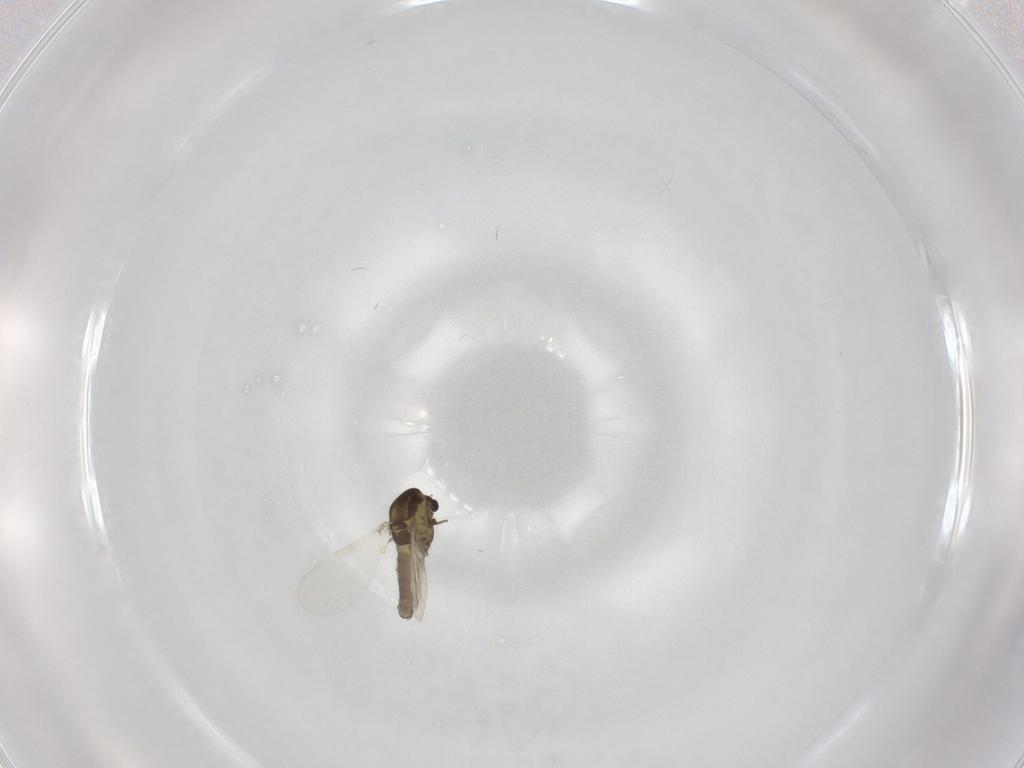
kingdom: Animalia
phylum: Arthropoda
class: Insecta
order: Diptera
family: Chironomidae
